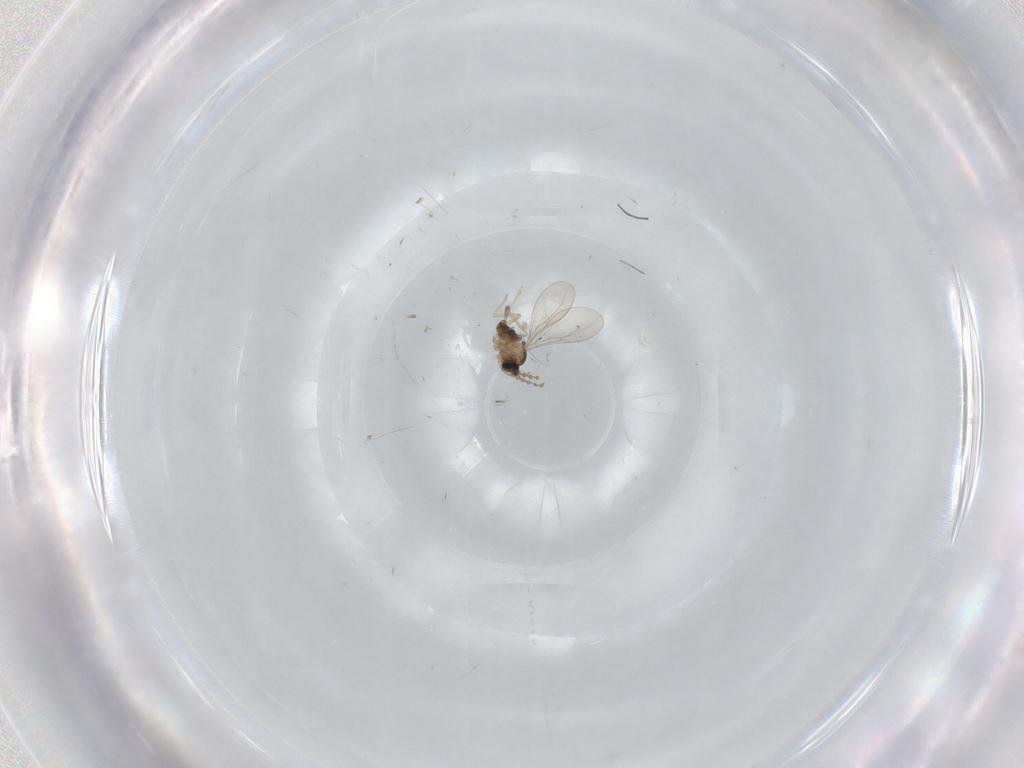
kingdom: Animalia
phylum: Arthropoda
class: Insecta
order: Diptera
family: Cecidomyiidae
